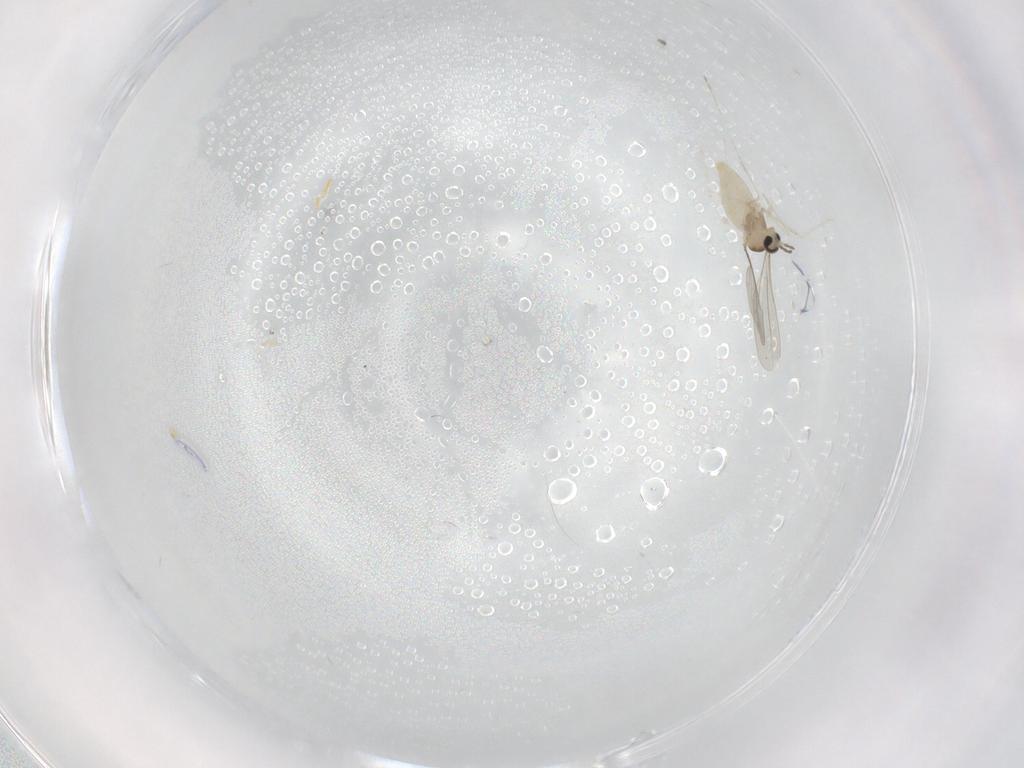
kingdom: Animalia
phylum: Arthropoda
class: Insecta
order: Diptera
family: Cecidomyiidae
